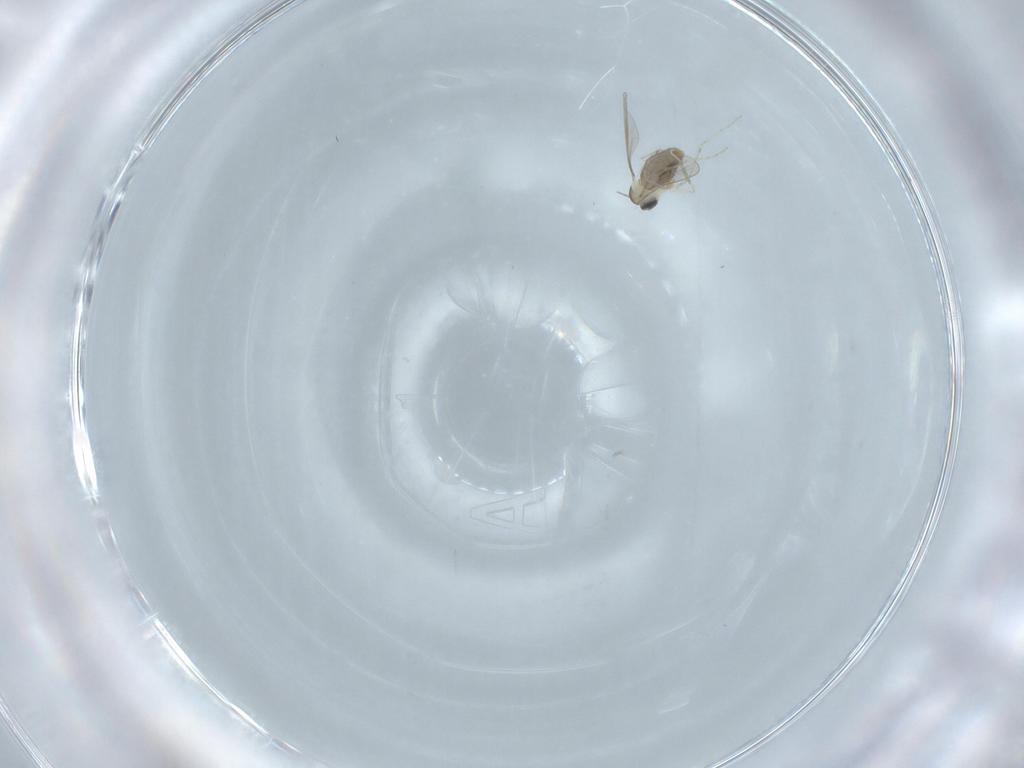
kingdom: Animalia
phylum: Arthropoda
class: Insecta
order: Diptera
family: Cecidomyiidae
